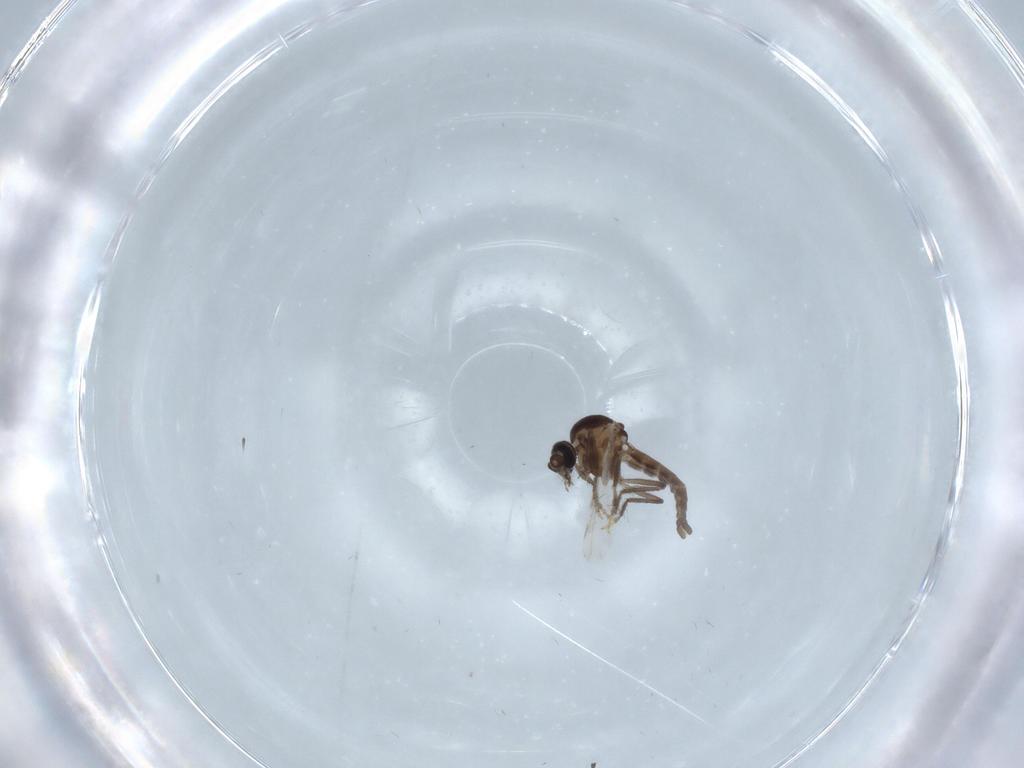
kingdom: Animalia
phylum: Arthropoda
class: Insecta
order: Diptera
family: Ceratopogonidae
